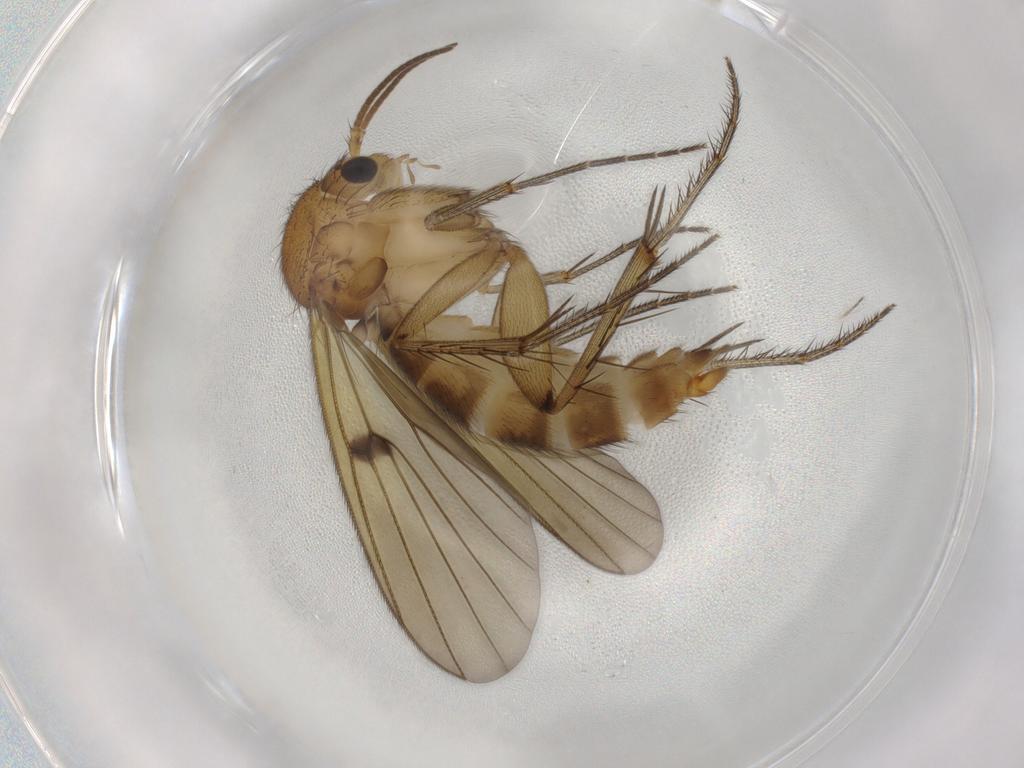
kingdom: Animalia
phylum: Arthropoda
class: Insecta
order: Diptera
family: Mycetophilidae
